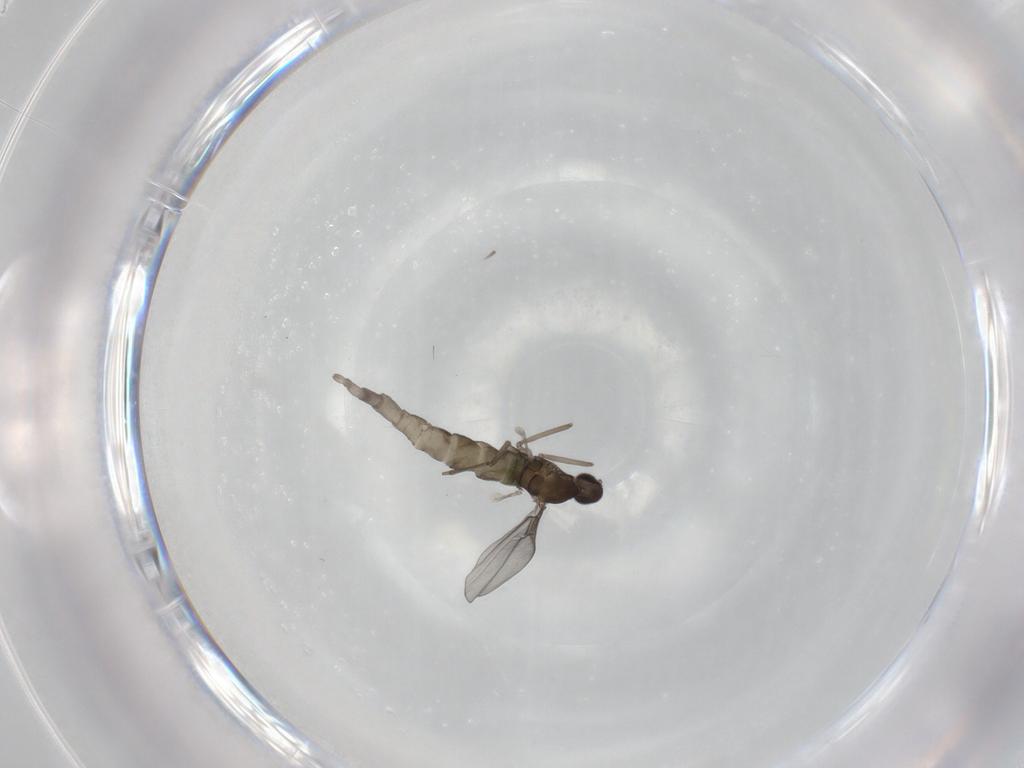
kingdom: Animalia
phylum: Arthropoda
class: Insecta
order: Diptera
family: Cecidomyiidae
